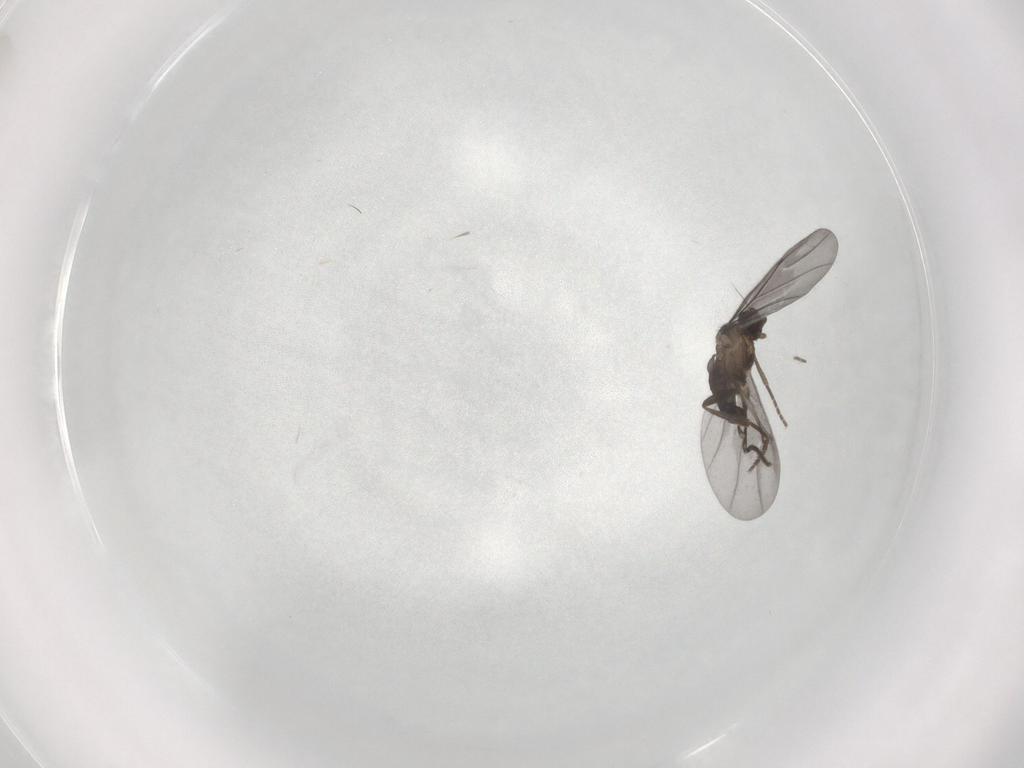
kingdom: Animalia
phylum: Arthropoda
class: Insecta
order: Diptera
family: Phoridae
